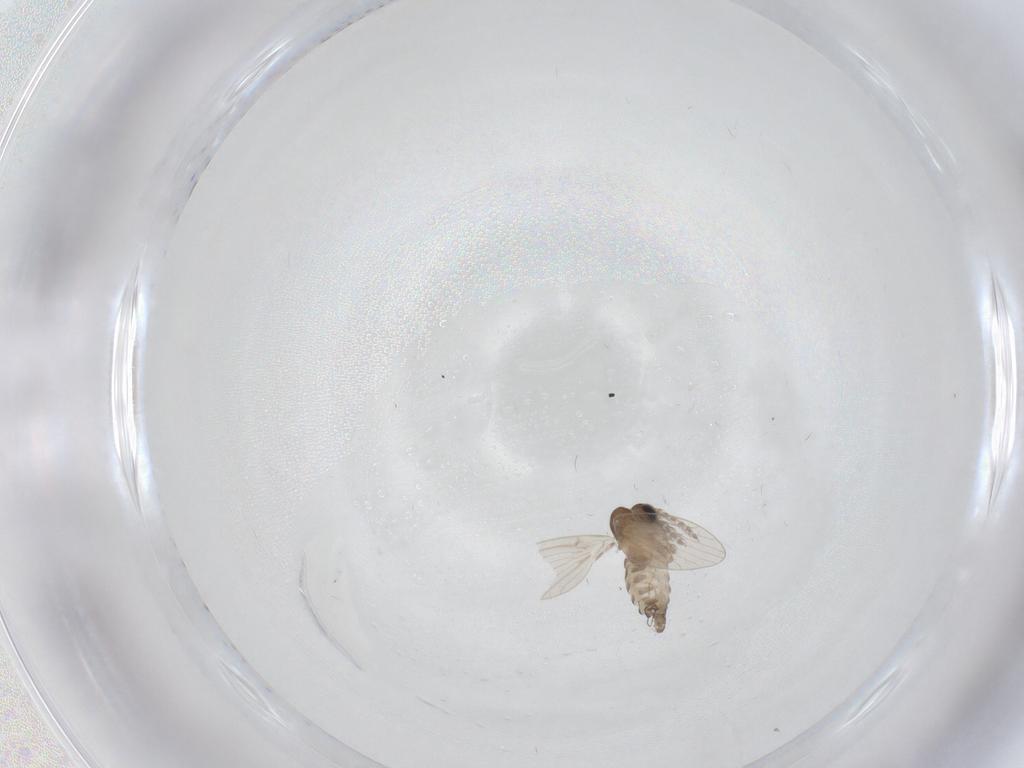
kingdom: Animalia
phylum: Arthropoda
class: Insecta
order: Diptera
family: Psychodidae
